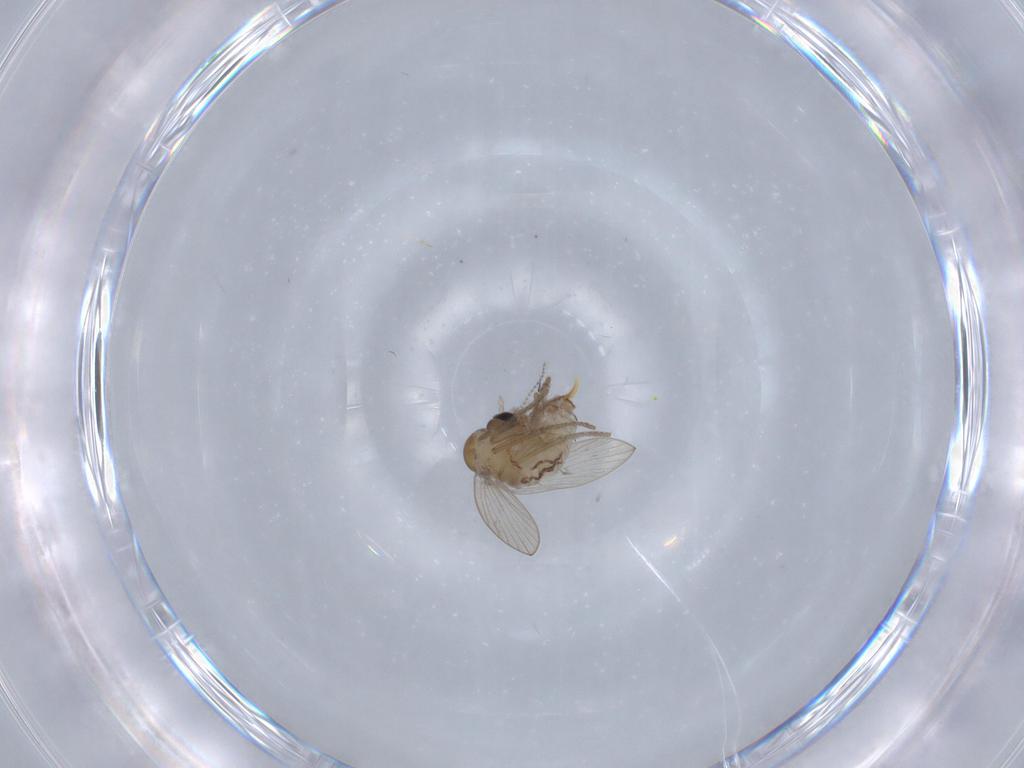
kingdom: Animalia
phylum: Arthropoda
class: Insecta
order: Diptera
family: Psychodidae
